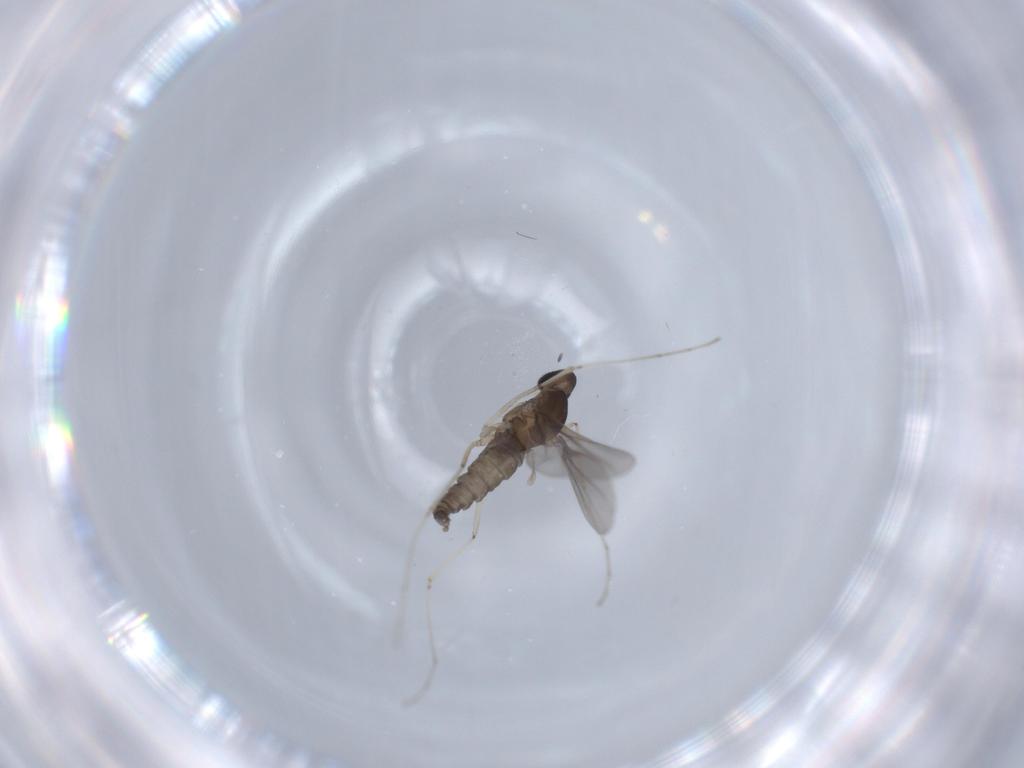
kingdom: Animalia
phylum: Arthropoda
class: Insecta
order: Diptera
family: Cecidomyiidae
